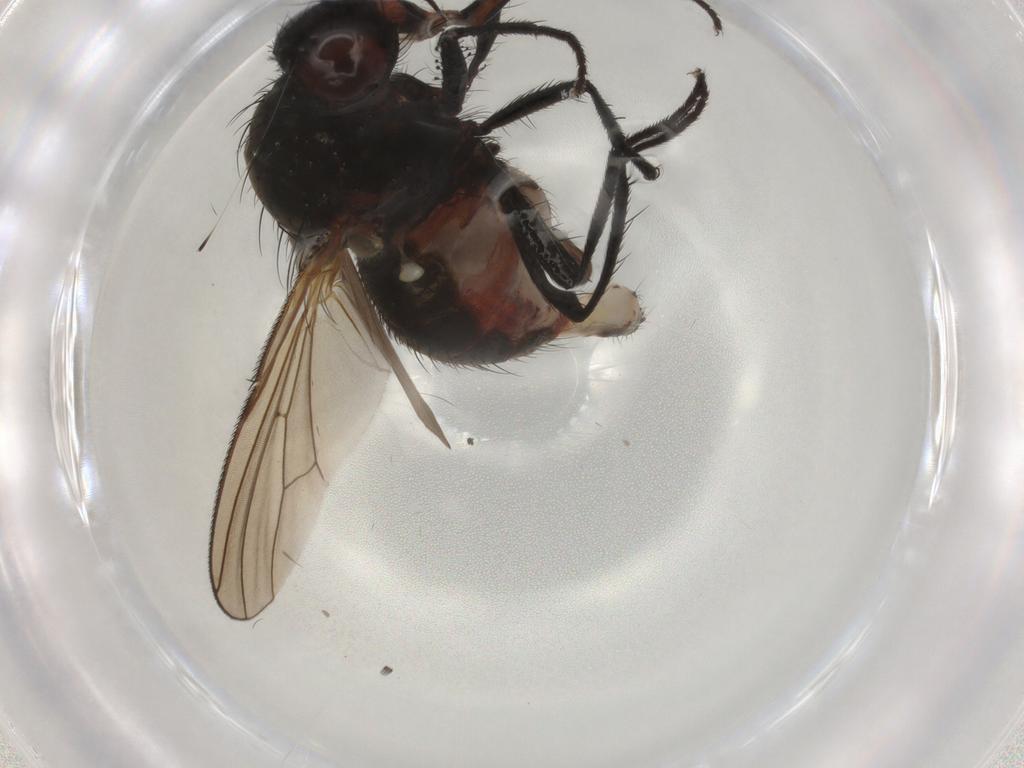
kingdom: Animalia
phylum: Arthropoda
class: Insecta
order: Diptera
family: Anthomyiidae
